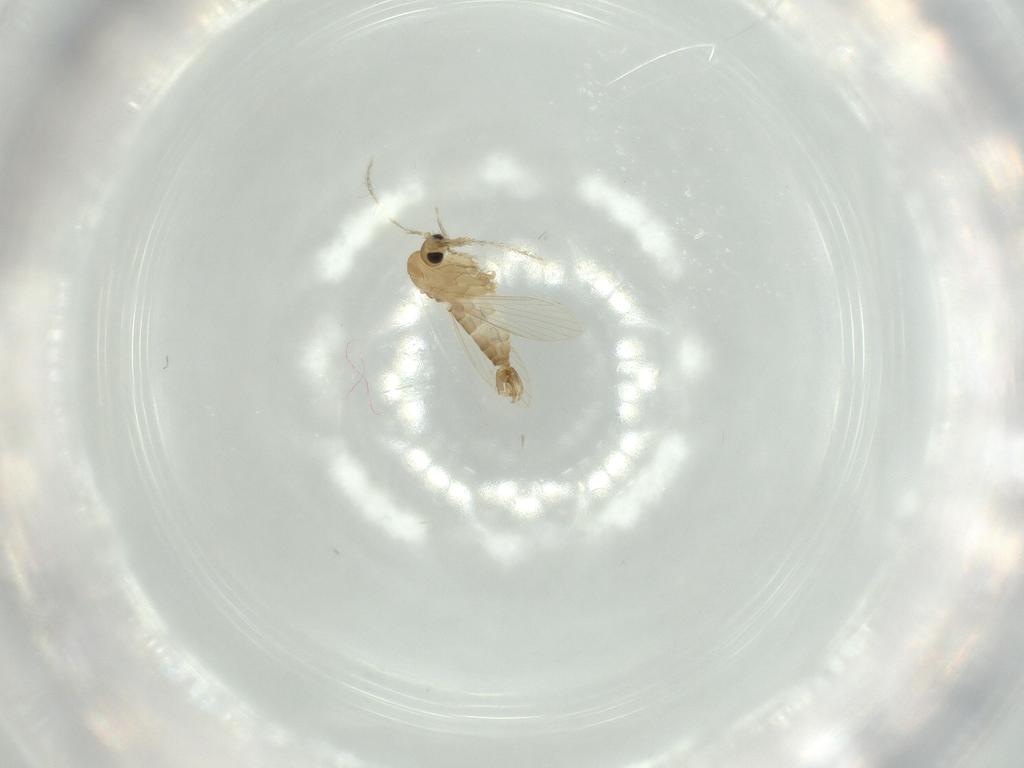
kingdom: Animalia
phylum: Arthropoda
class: Insecta
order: Diptera
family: Psychodidae
